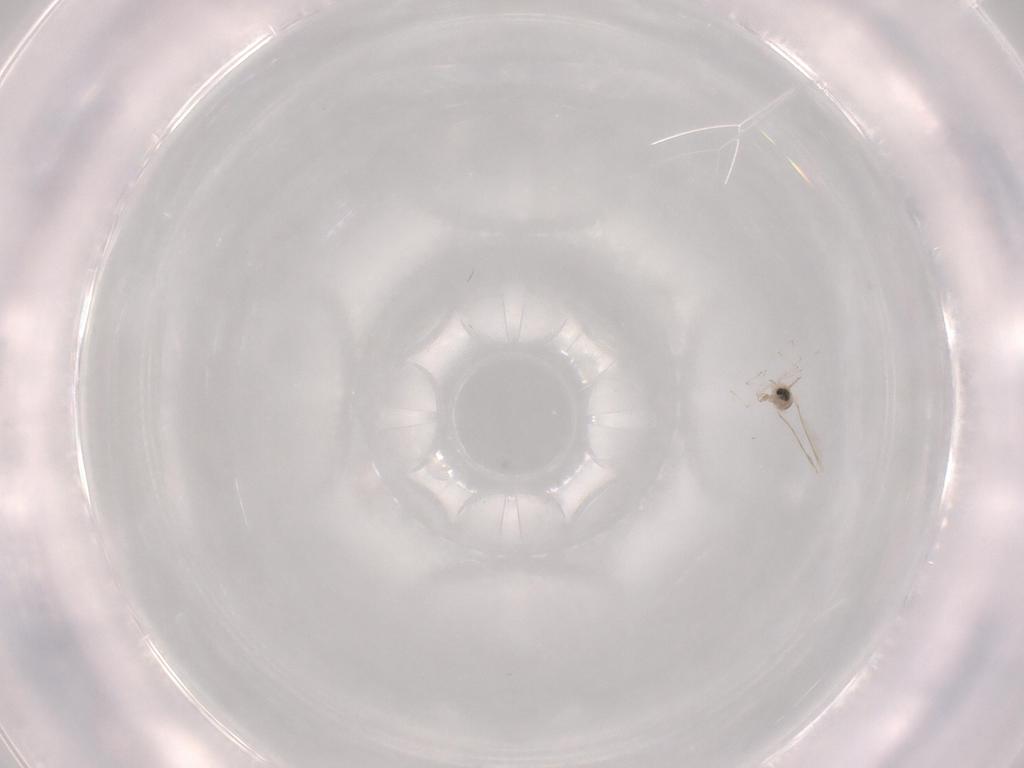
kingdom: Animalia
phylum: Arthropoda
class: Insecta
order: Diptera
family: Cecidomyiidae
